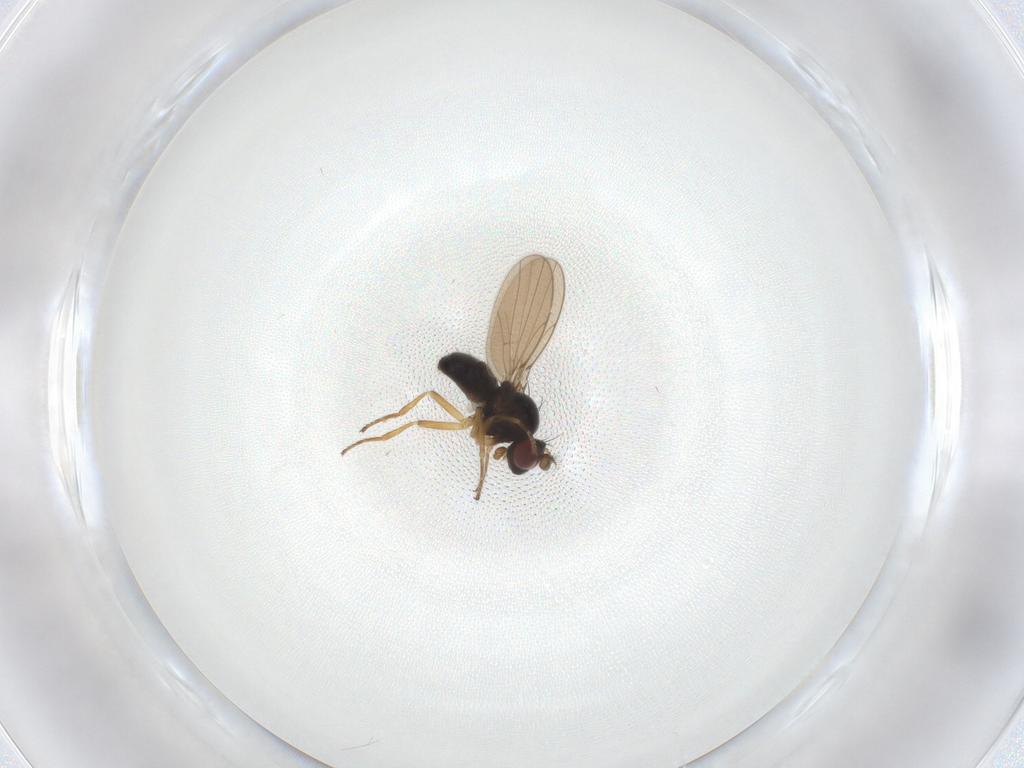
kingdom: Animalia
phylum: Arthropoda
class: Insecta
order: Diptera
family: Ephydridae
